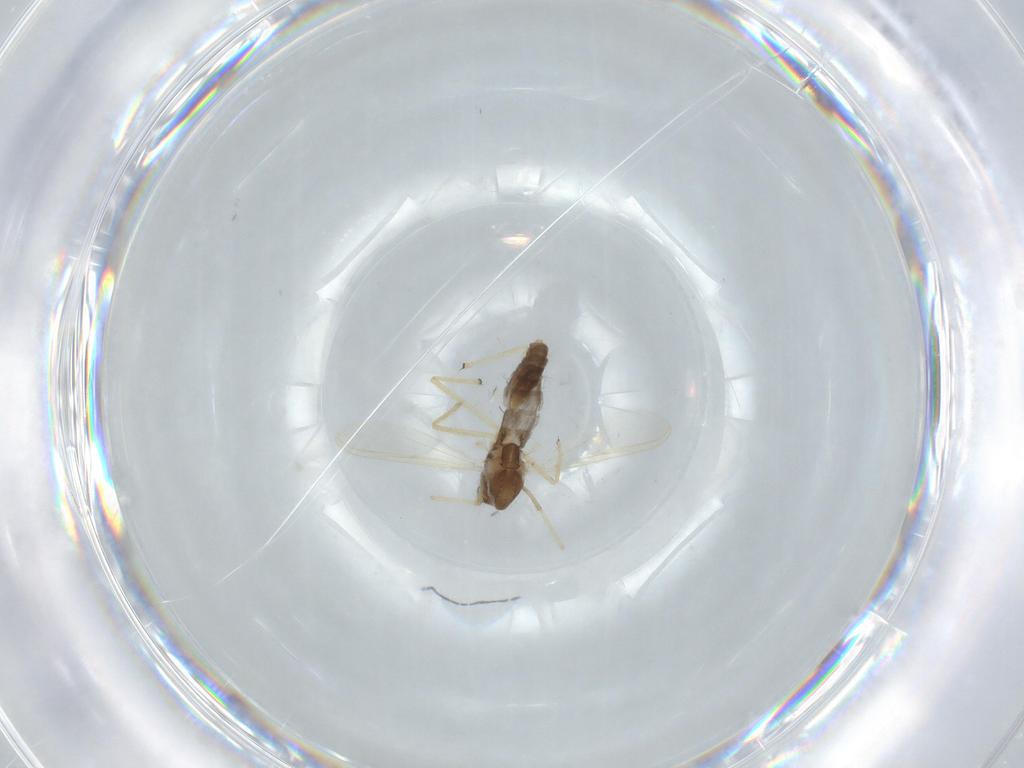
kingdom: Animalia
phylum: Arthropoda
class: Insecta
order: Diptera
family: Chironomidae
